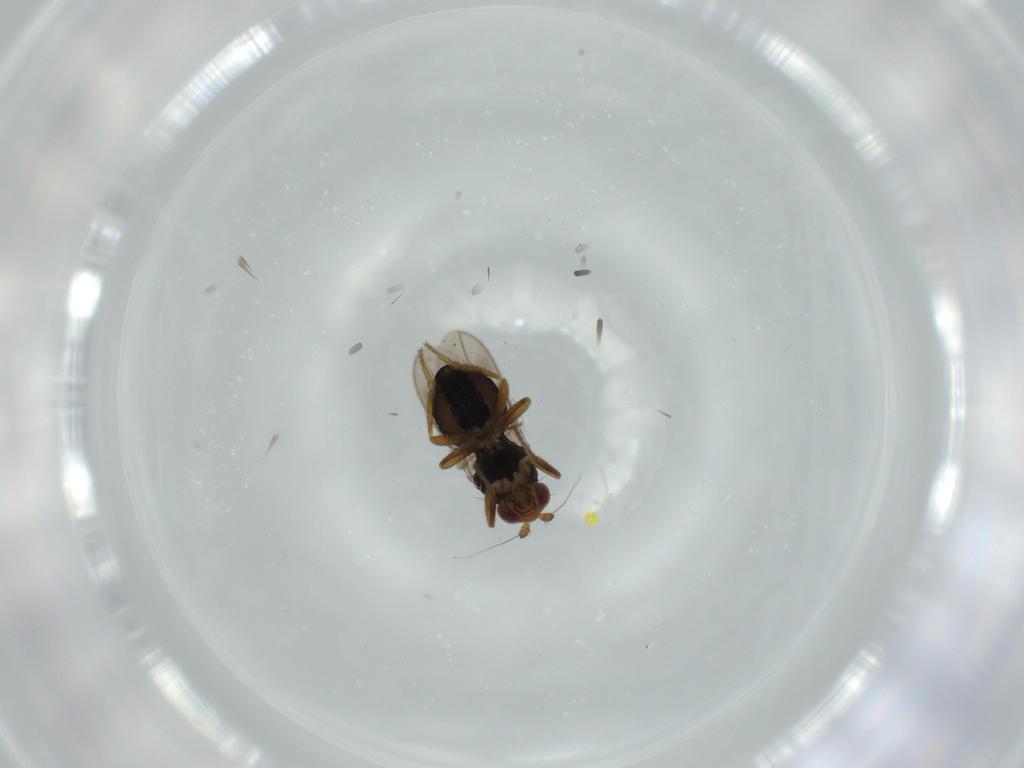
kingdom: Animalia
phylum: Arthropoda
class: Insecta
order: Diptera
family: Sphaeroceridae
